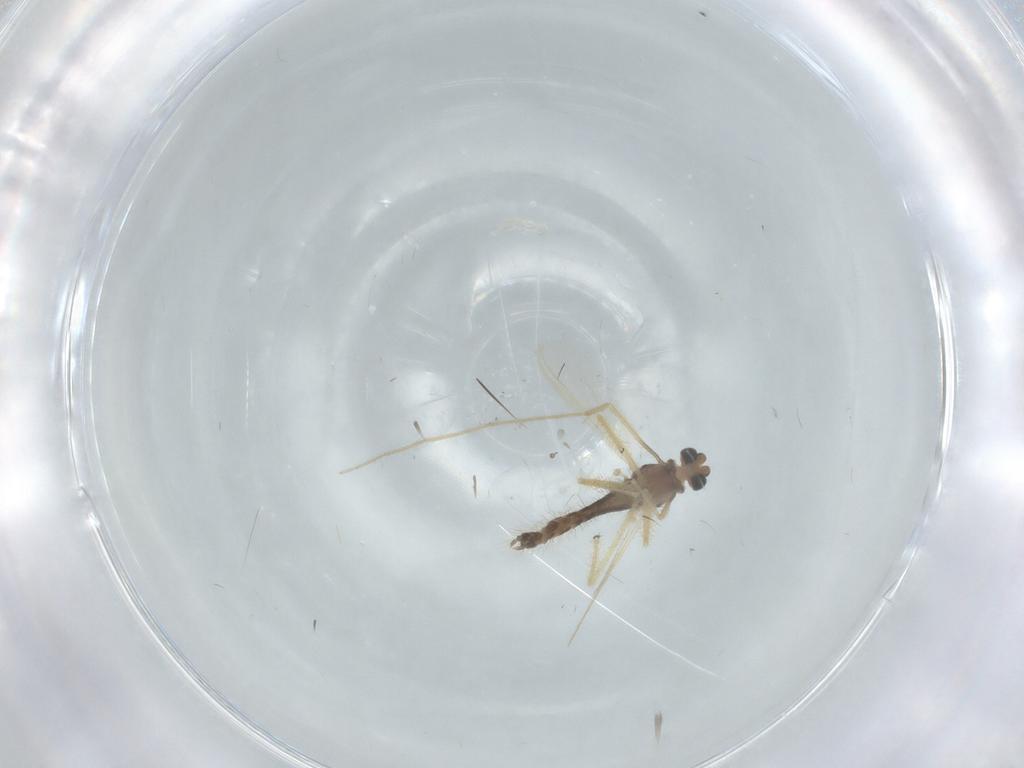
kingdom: Animalia
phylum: Arthropoda
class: Insecta
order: Diptera
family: Chironomidae
